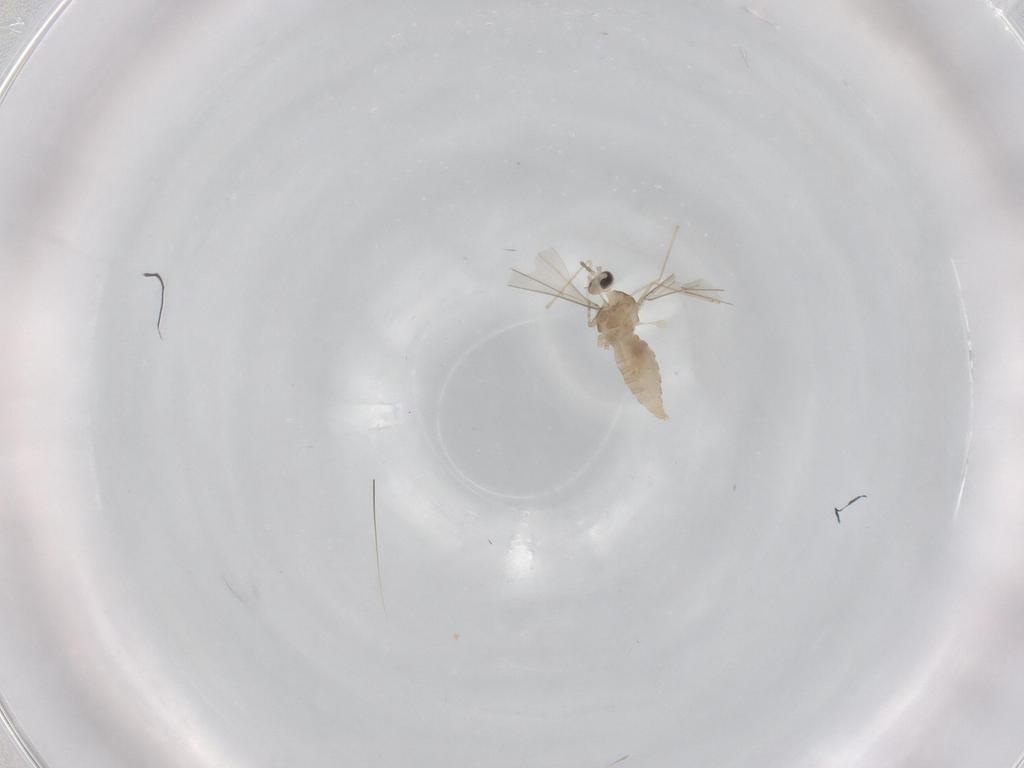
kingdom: Animalia
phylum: Arthropoda
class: Insecta
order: Diptera
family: Cecidomyiidae
